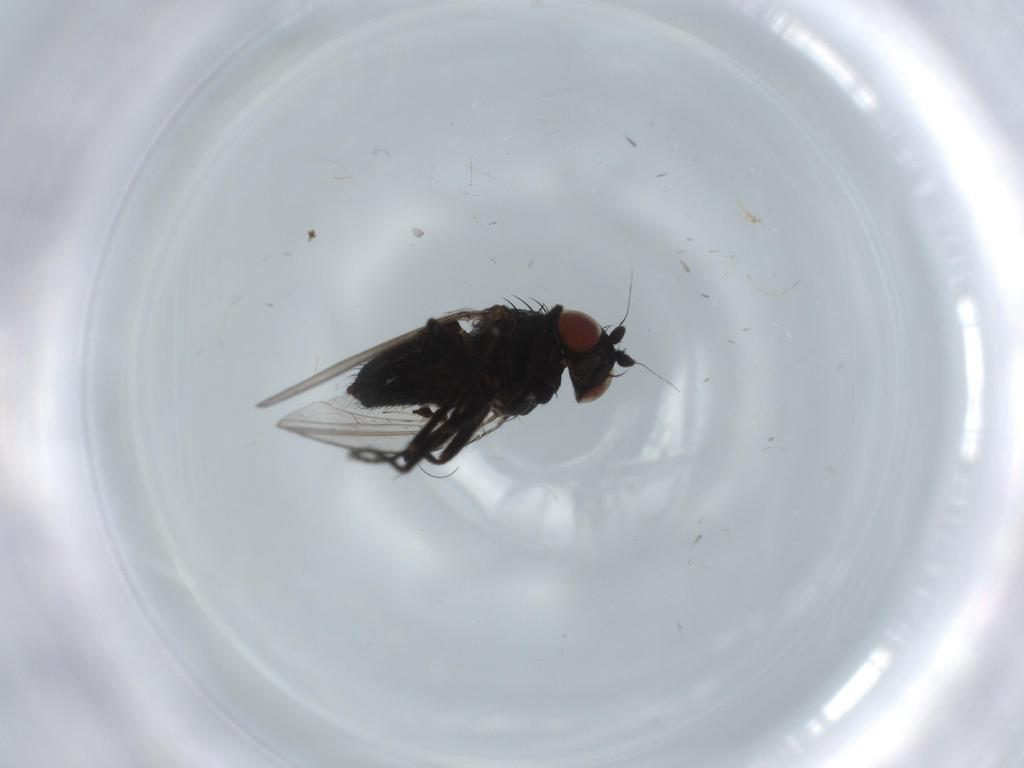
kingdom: Animalia
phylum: Arthropoda
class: Insecta
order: Diptera
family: Milichiidae
